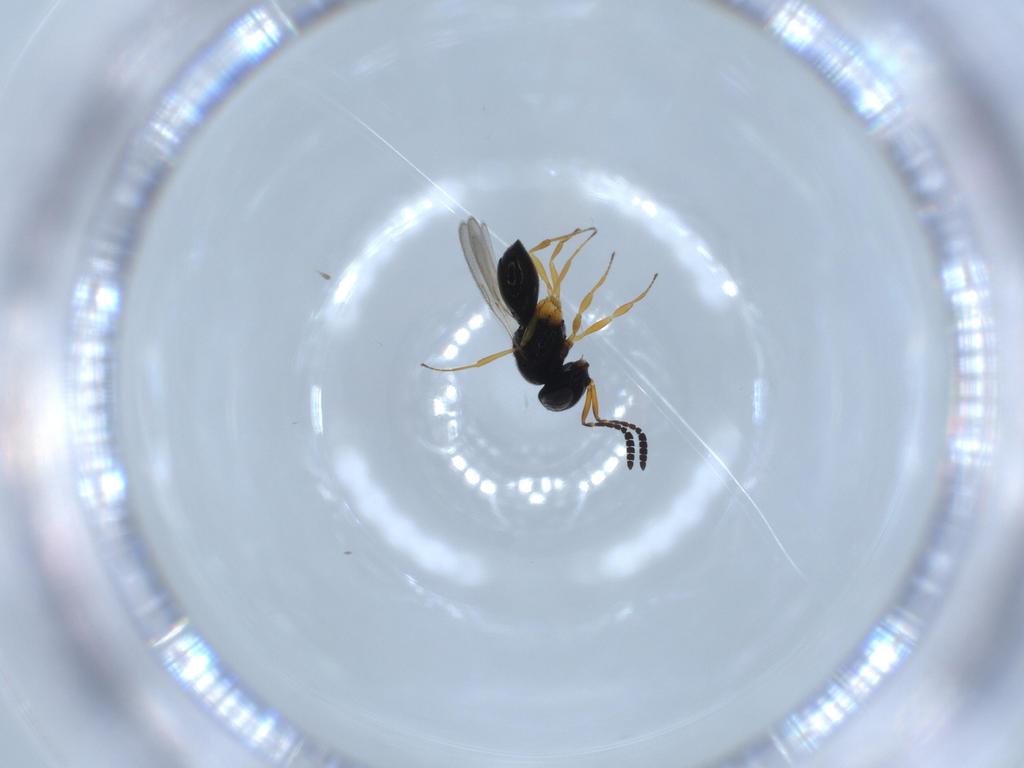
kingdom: Animalia
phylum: Arthropoda
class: Insecta
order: Hymenoptera
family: Scelionidae
